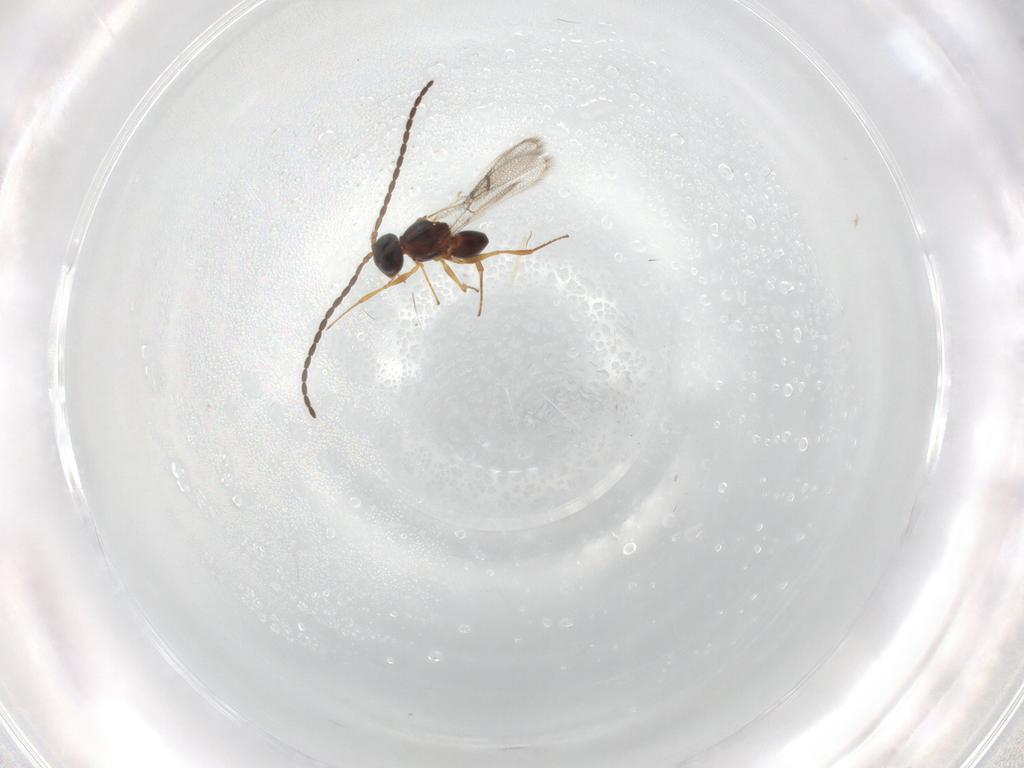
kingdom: Animalia
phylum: Arthropoda
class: Insecta
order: Hymenoptera
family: Figitidae
